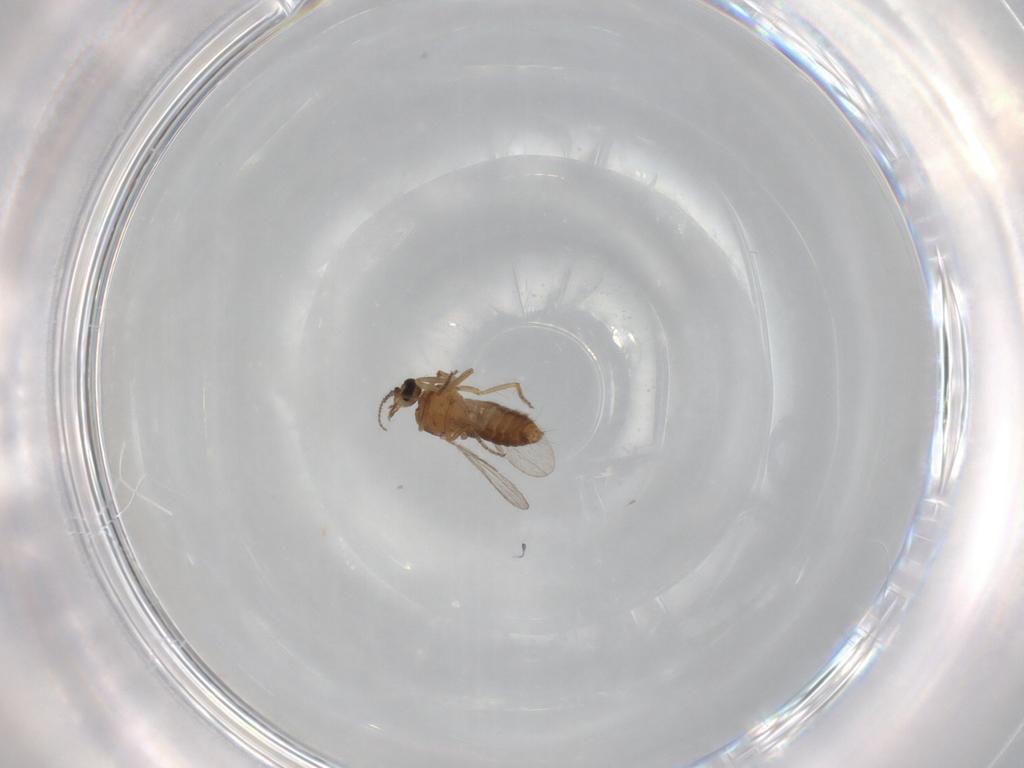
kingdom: Animalia
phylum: Arthropoda
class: Insecta
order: Diptera
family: Ceratopogonidae
